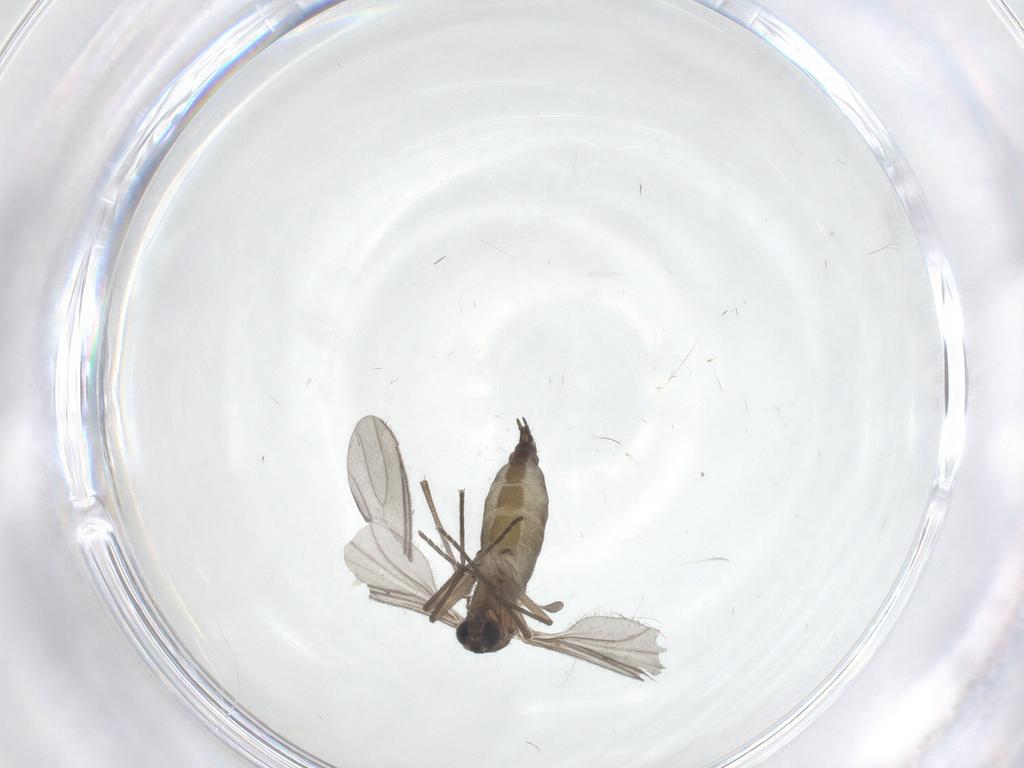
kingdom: Animalia
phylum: Arthropoda
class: Insecta
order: Diptera
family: Sciaridae
